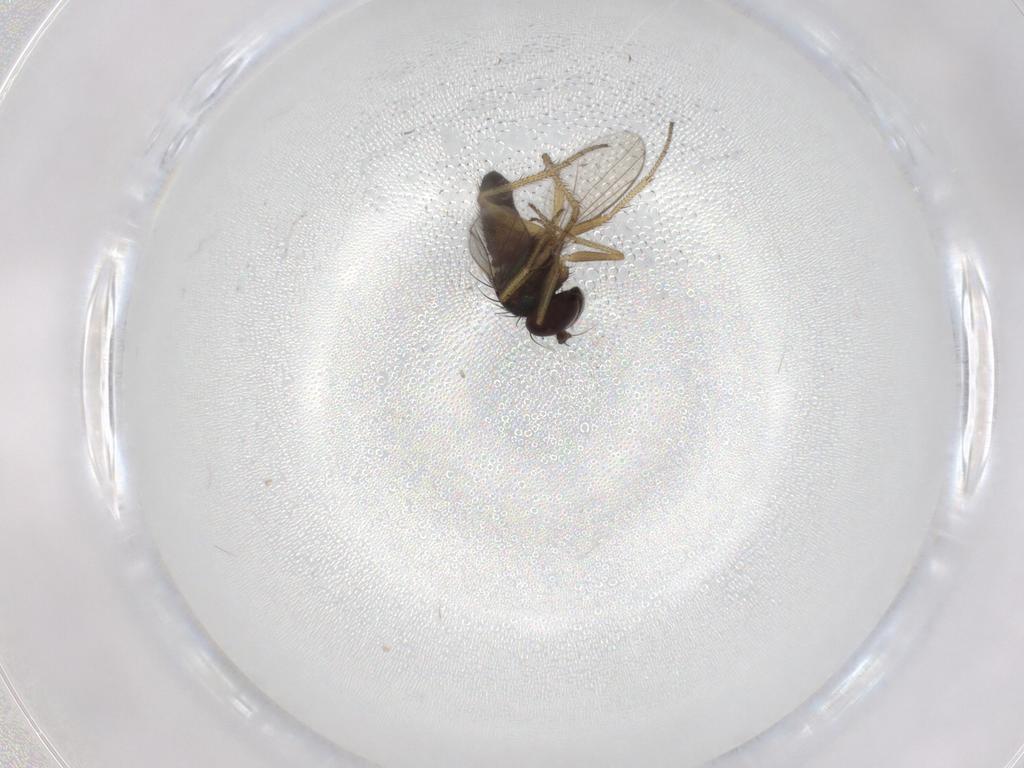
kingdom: Animalia
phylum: Arthropoda
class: Insecta
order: Diptera
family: Dolichopodidae
